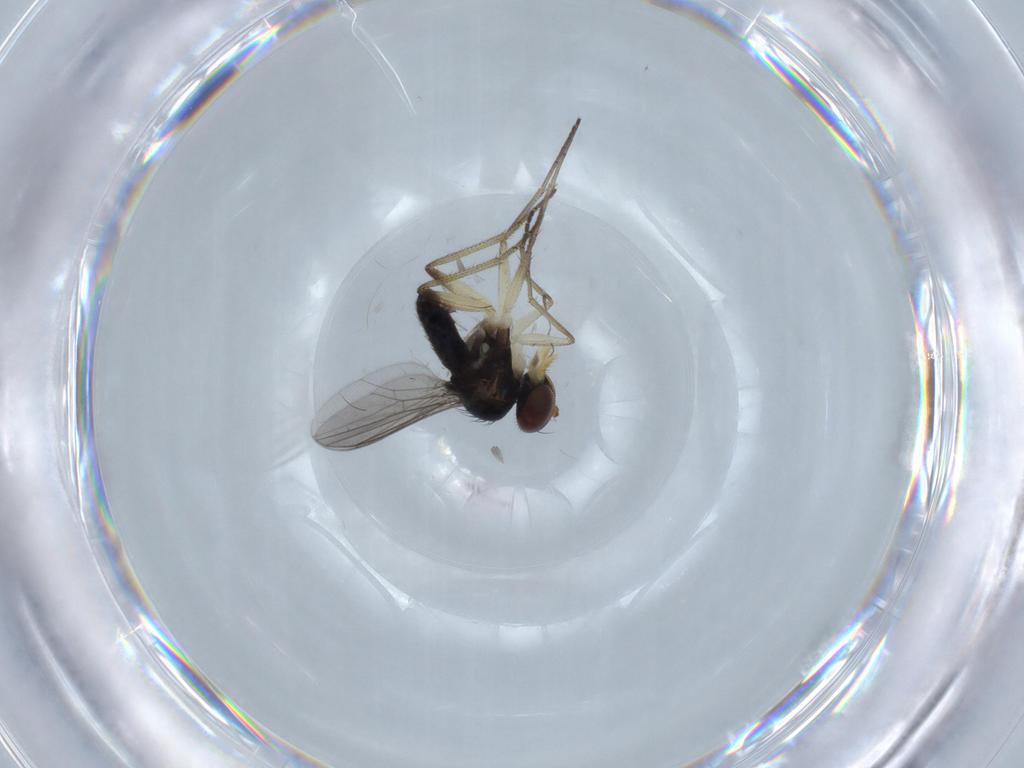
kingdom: Animalia
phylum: Arthropoda
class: Insecta
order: Diptera
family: Dolichopodidae
